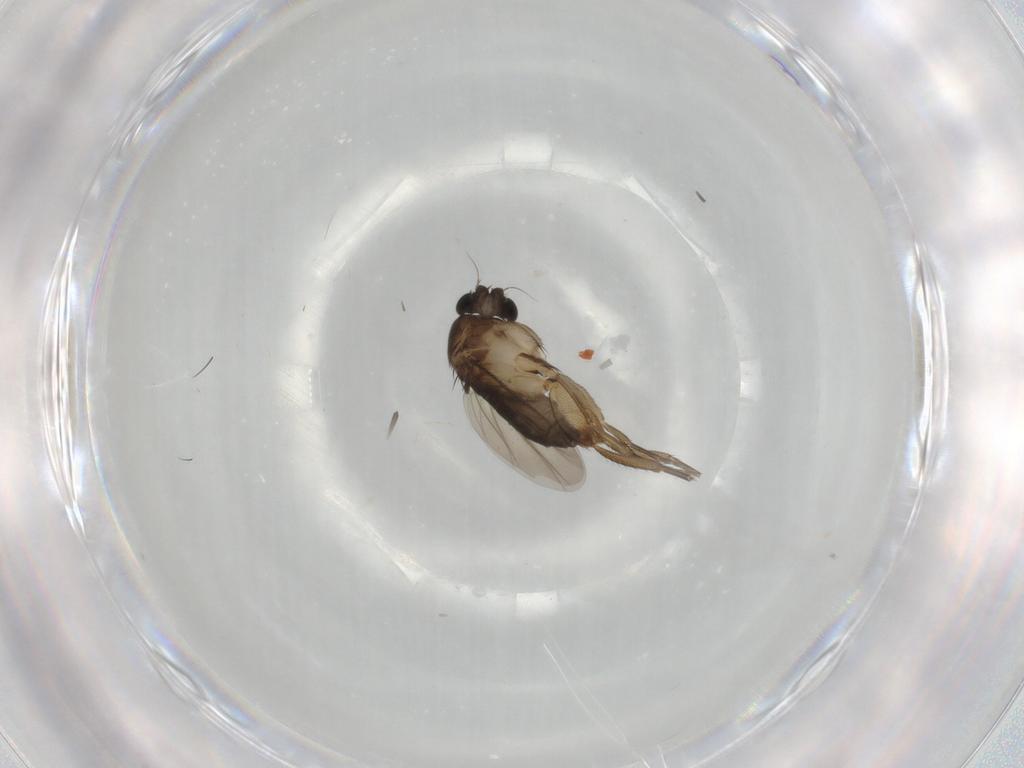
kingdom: Animalia
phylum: Arthropoda
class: Insecta
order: Diptera
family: Phoridae
